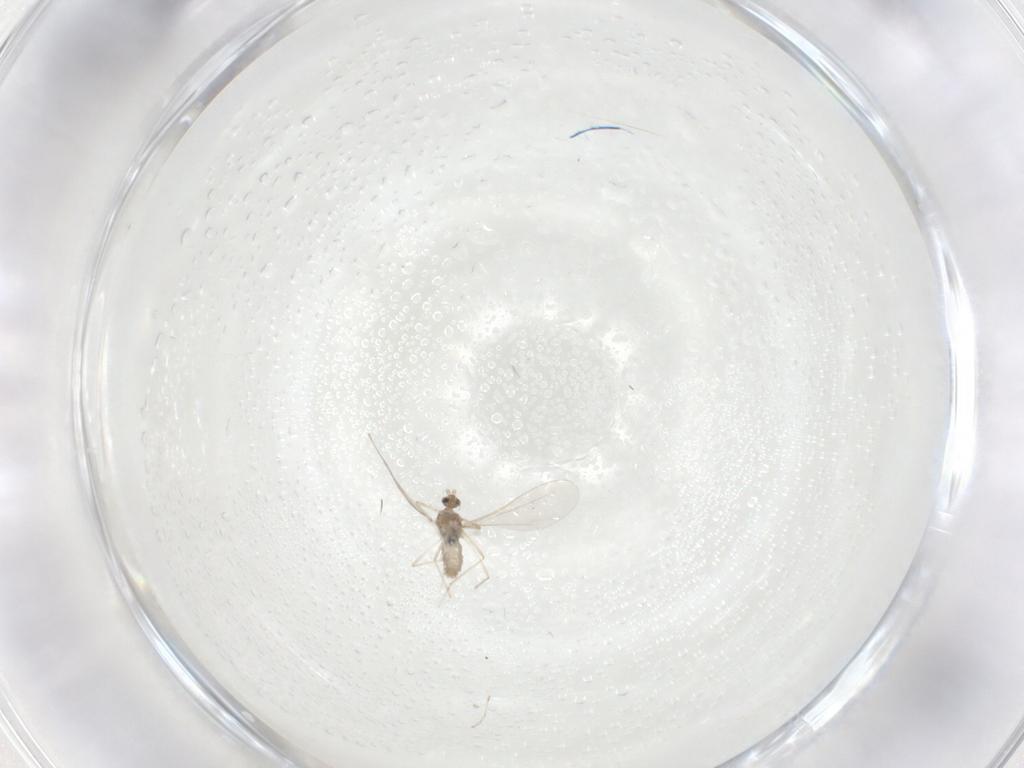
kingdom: Animalia
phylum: Arthropoda
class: Insecta
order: Diptera
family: Cecidomyiidae
